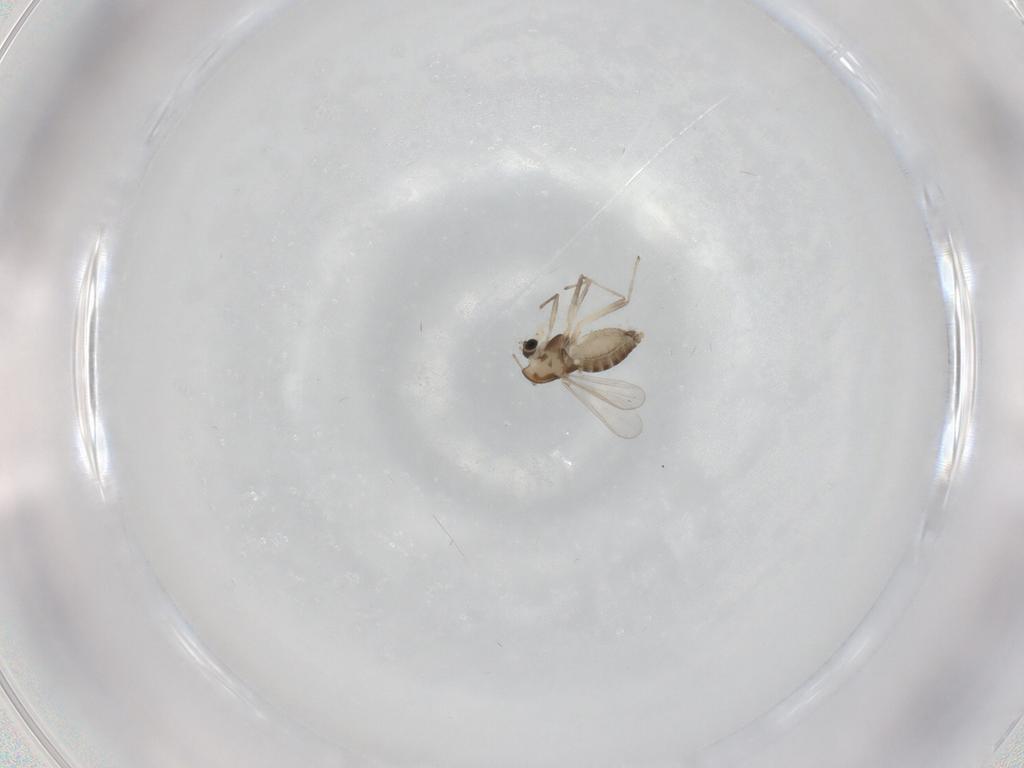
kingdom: Animalia
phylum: Arthropoda
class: Insecta
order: Diptera
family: Chironomidae
